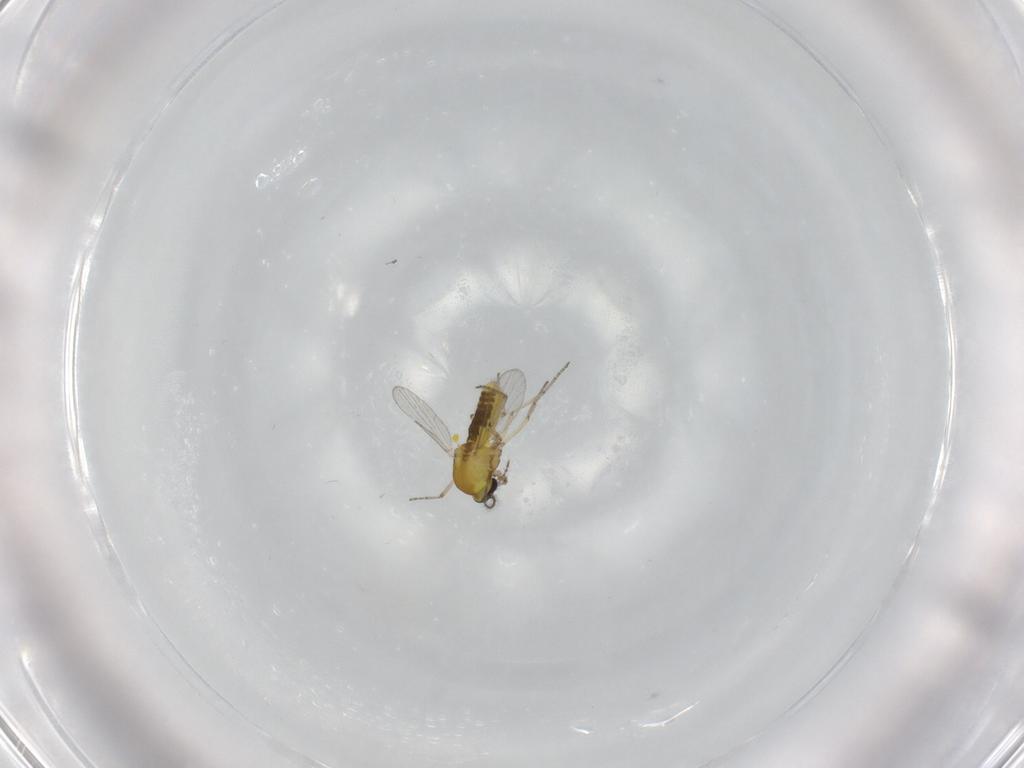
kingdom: Animalia
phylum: Arthropoda
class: Insecta
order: Diptera
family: Ceratopogonidae
